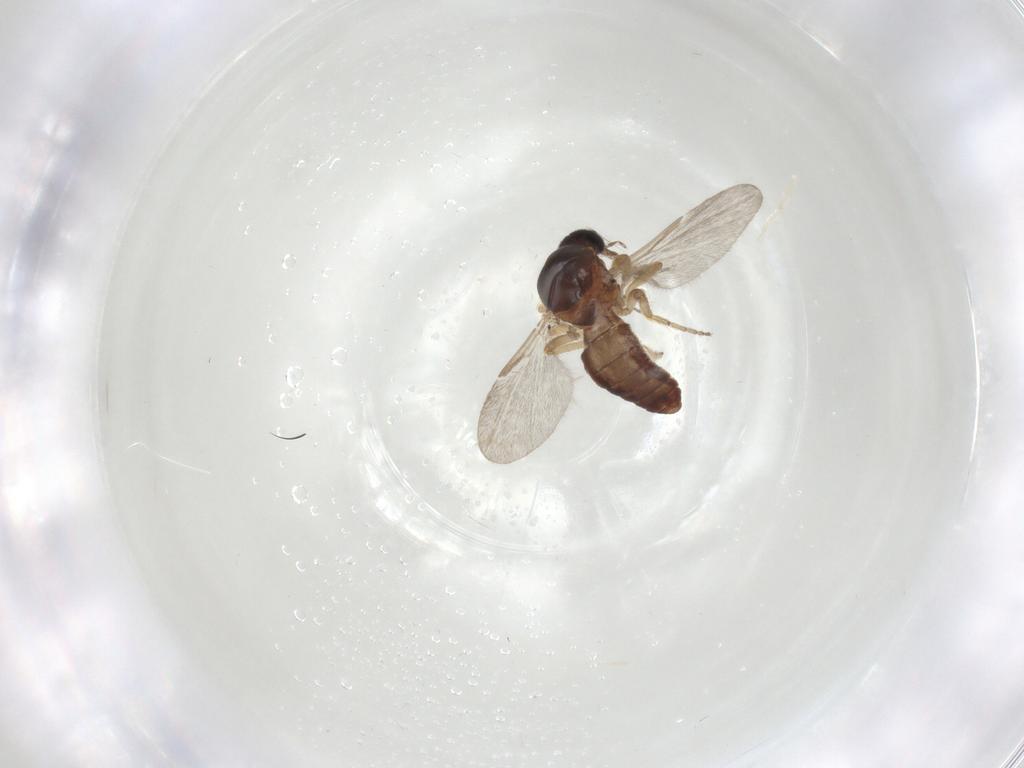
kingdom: Animalia
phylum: Arthropoda
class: Insecta
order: Diptera
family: Ceratopogonidae
